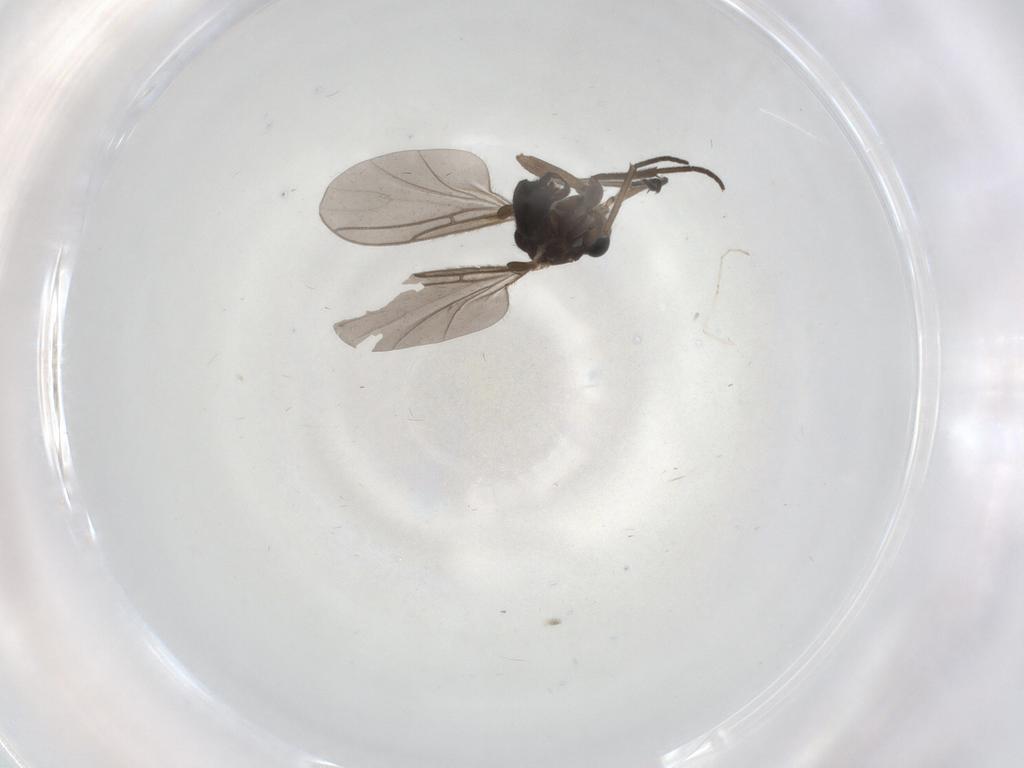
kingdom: Animalia
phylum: Arthropoda
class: Insecta
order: Diptera
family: Sciaridae
